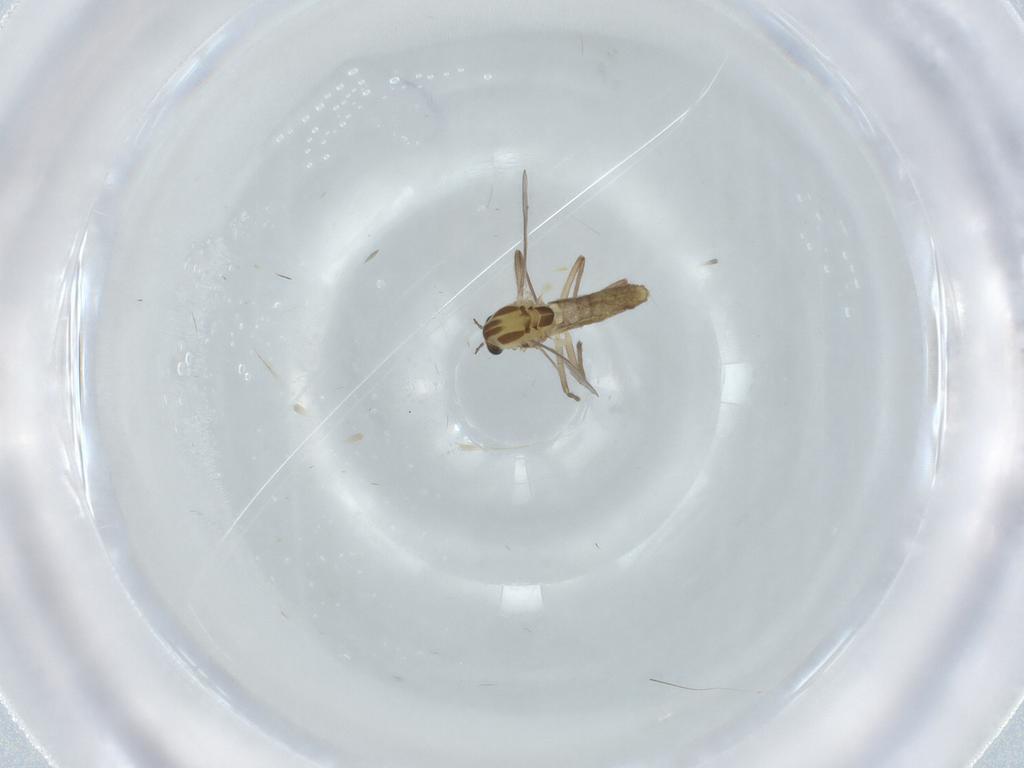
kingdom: Animalia
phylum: Arthropoda
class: Insecta
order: Diptera
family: Chironomidae
